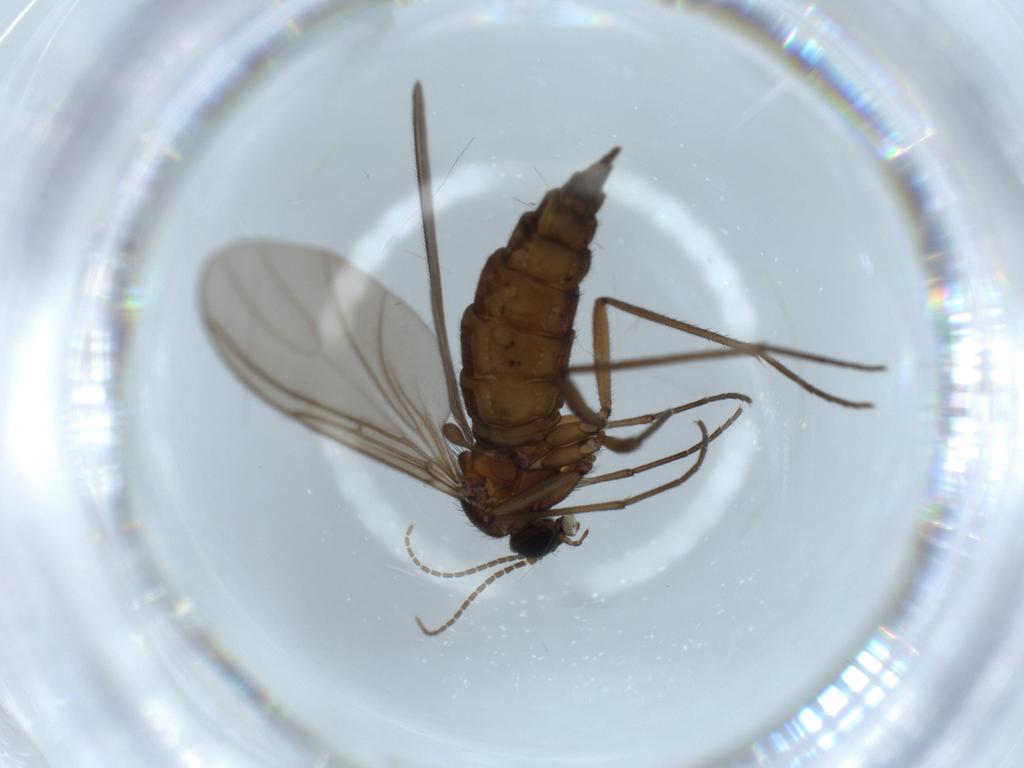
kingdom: Animalia
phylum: Arthropoda
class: Insecta
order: Diptera
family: Sciaridae
